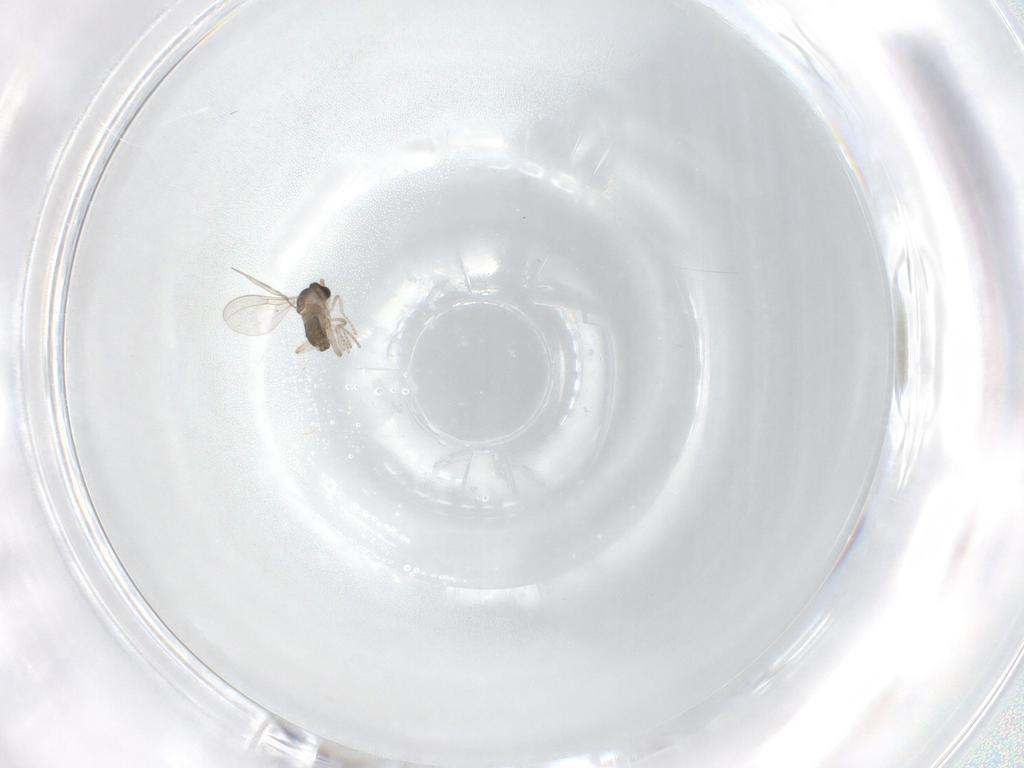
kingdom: Animalia
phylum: Arthropoda
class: Insecta
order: Diptera
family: Cecidomyiidae
